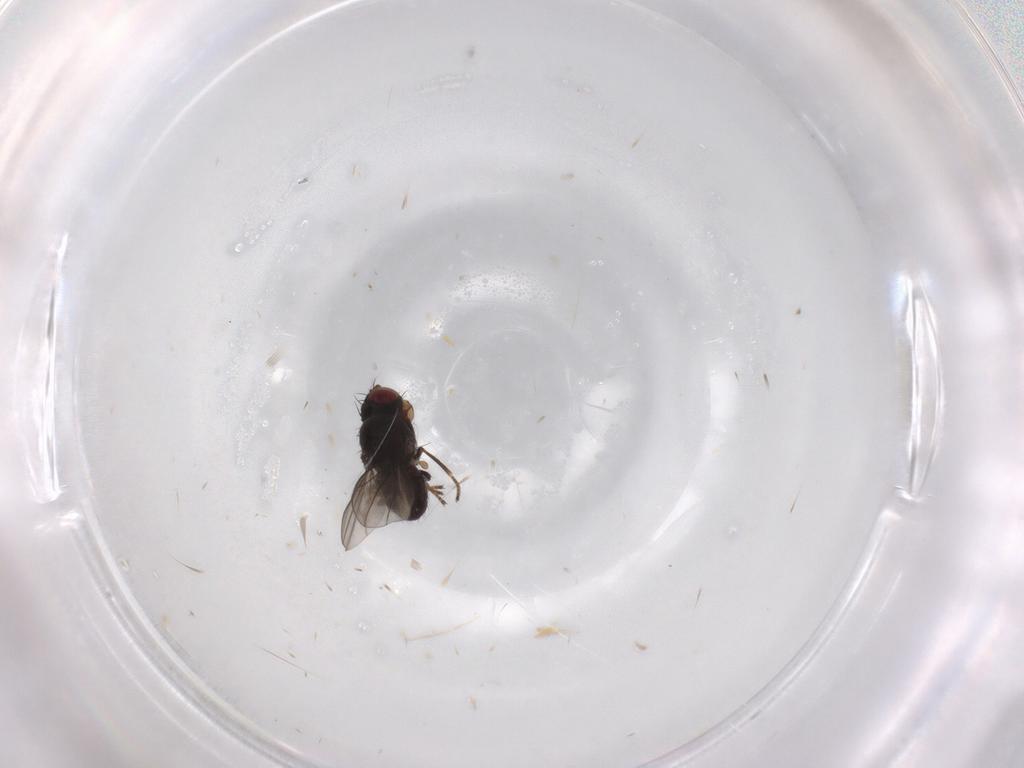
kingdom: Animalia
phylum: Arthropoda
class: Insecta
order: Diptera
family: Ephydridae
